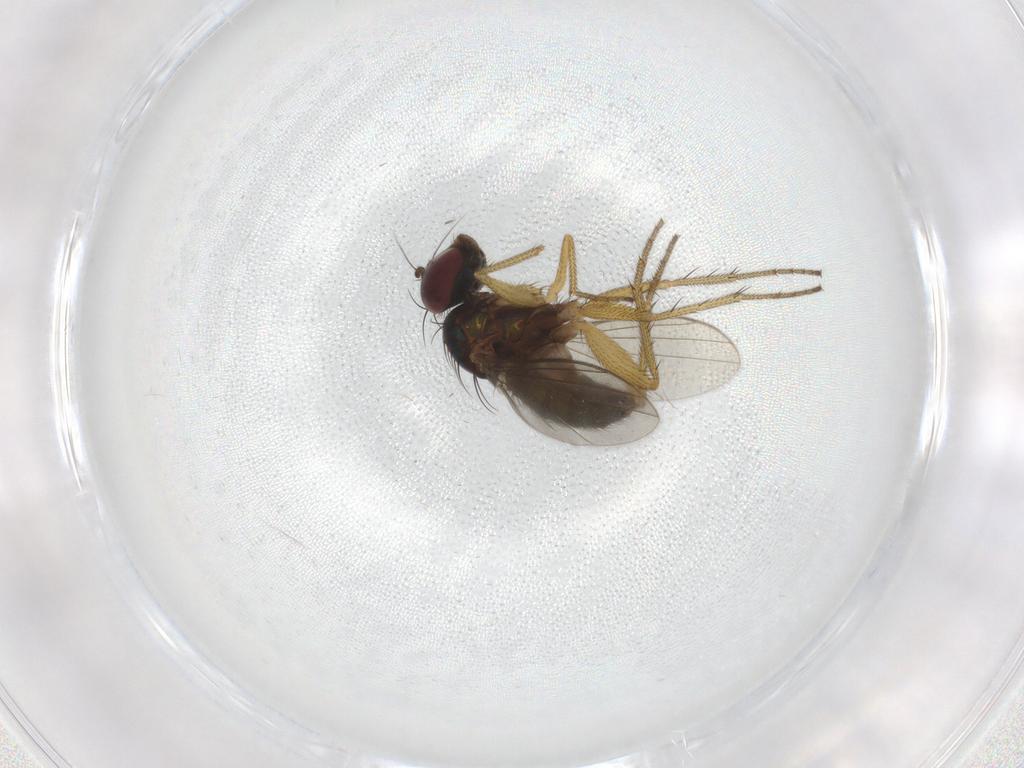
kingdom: Animalia
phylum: Arthropoda
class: Insecta
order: Diptera
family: Dolichopodidae
